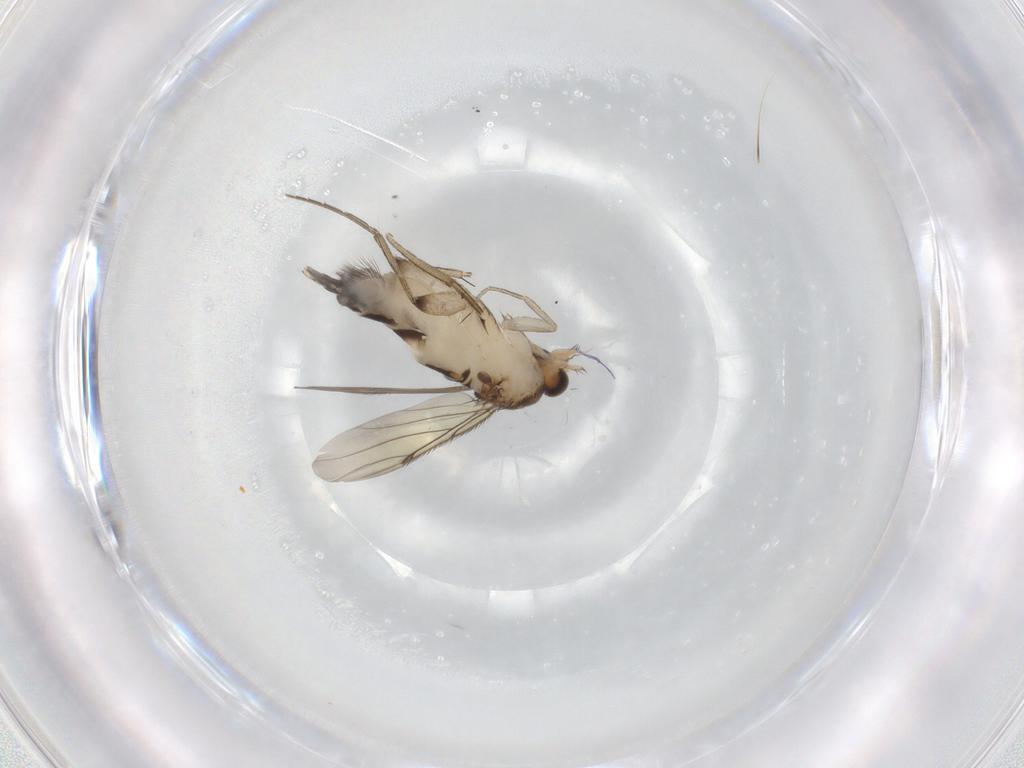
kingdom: Animalia
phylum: Arthropoda
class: Insecta
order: Diptera
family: Phoridae
